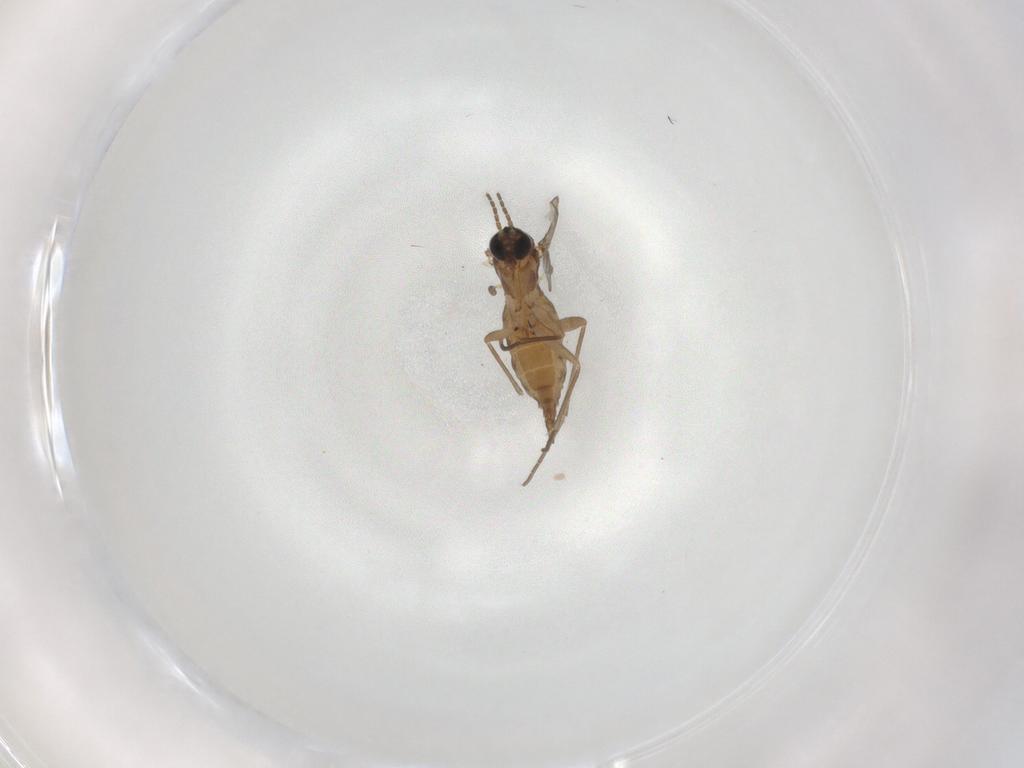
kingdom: Animalia
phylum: Arthropoda
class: Insecta
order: Diptera
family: Sciaridae
